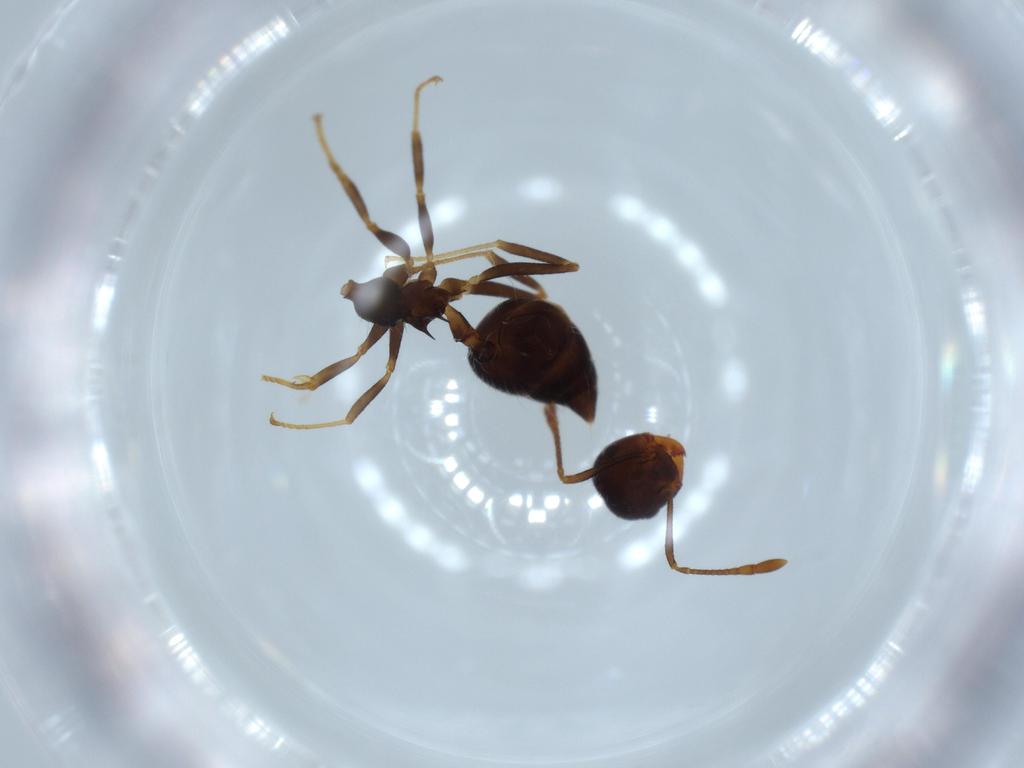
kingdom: Animalia
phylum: Arthropoda
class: Insecta
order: Hymenoptera
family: Formicidae
